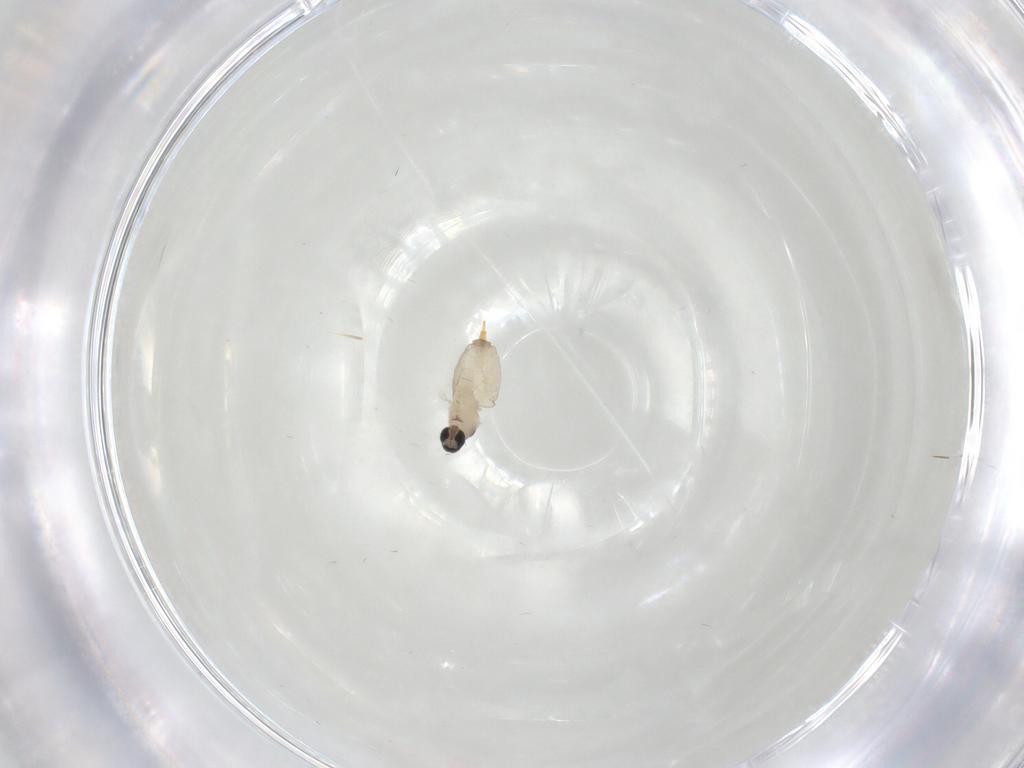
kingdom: Animalia
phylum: Arthropoda
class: Insecta
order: Diptera
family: Cecidomyiidae
